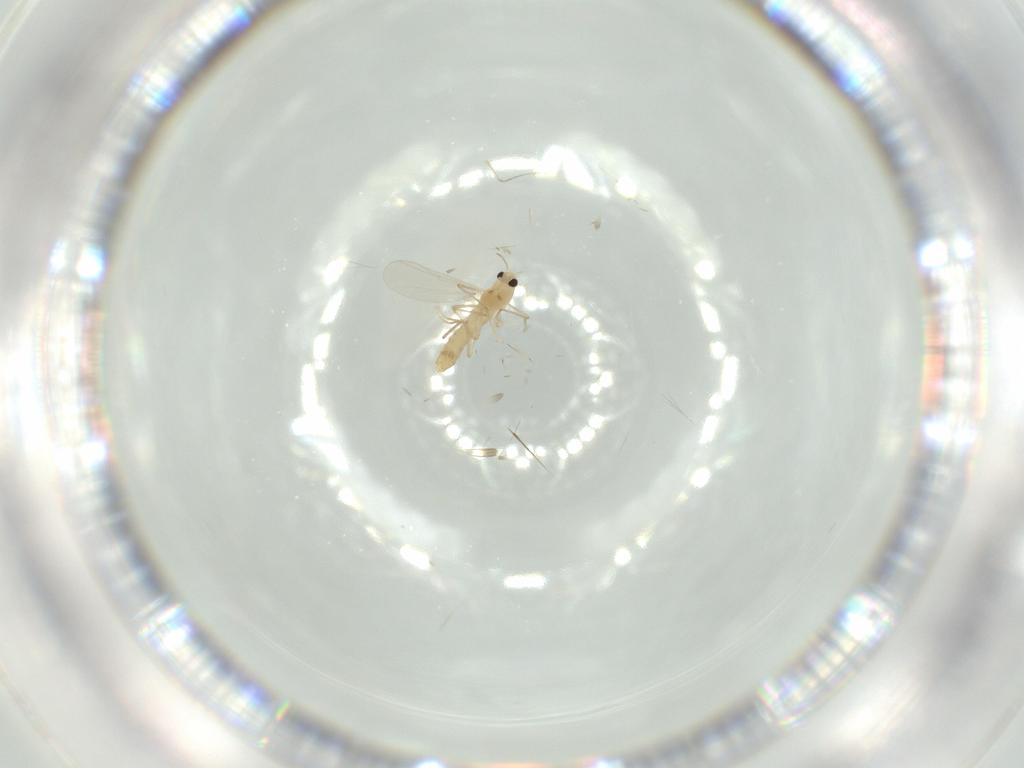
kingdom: Animalia
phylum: Arthropoda
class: Insecta
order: Diptera
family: Chironomidae
